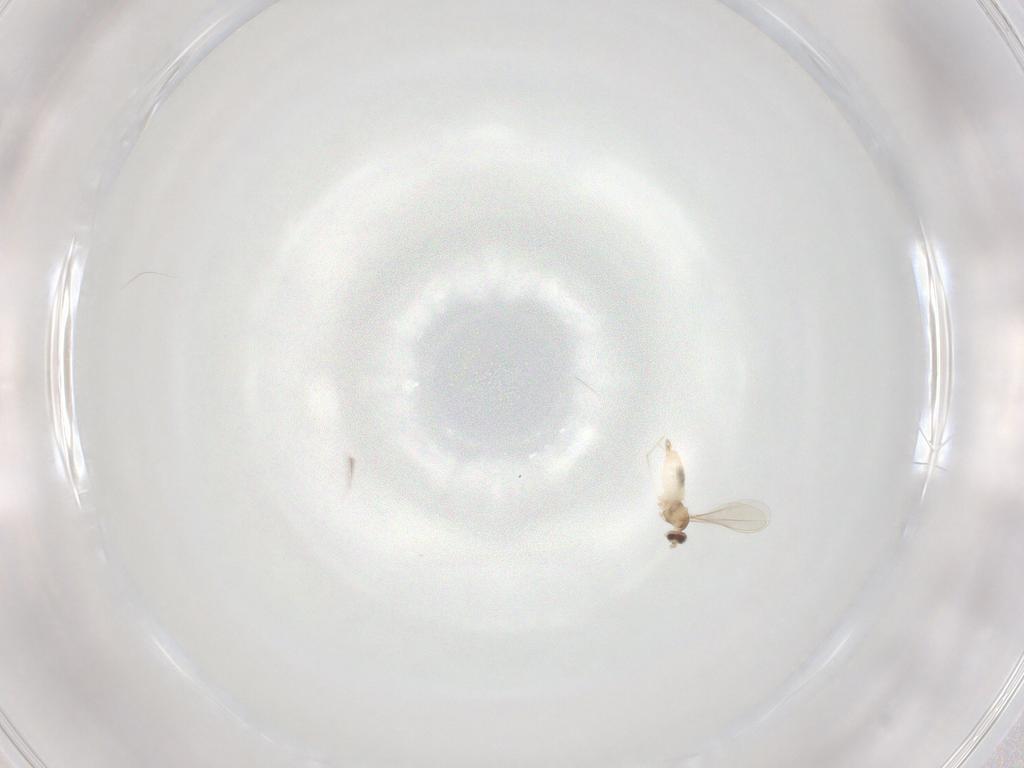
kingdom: Animalia
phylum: Arthropoda
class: Insecta
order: Diptera
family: Cecidomyiidae
